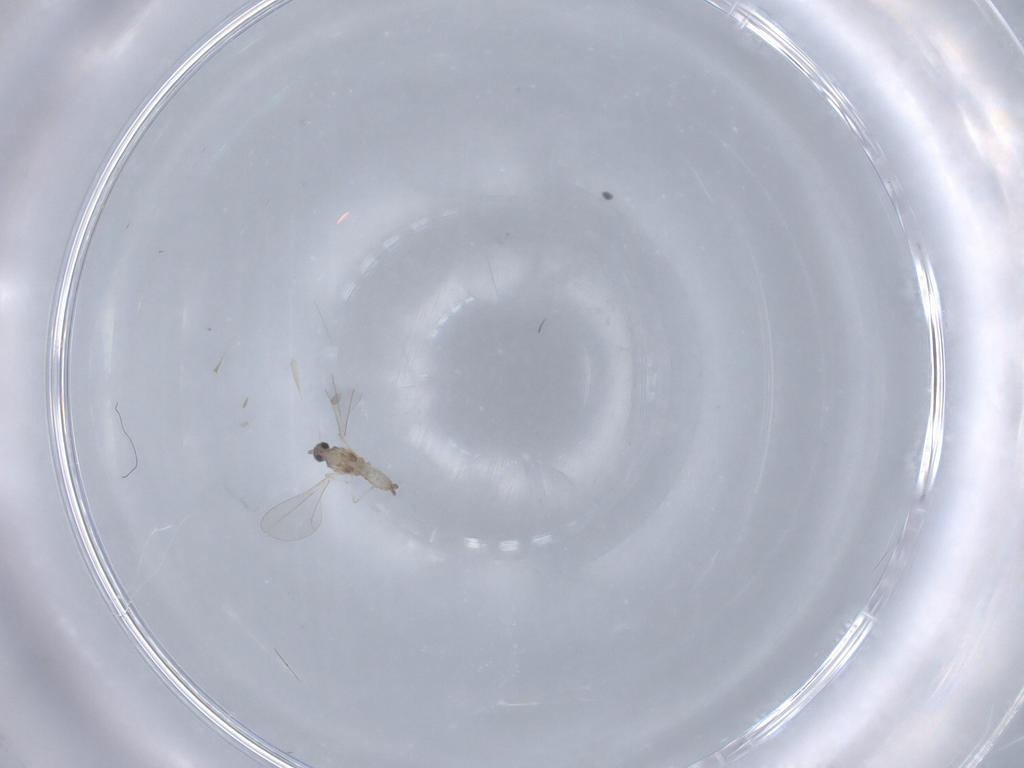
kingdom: Animalia
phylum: Arthropoda
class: Insecta
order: Diptera
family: Cecidomyiidae
